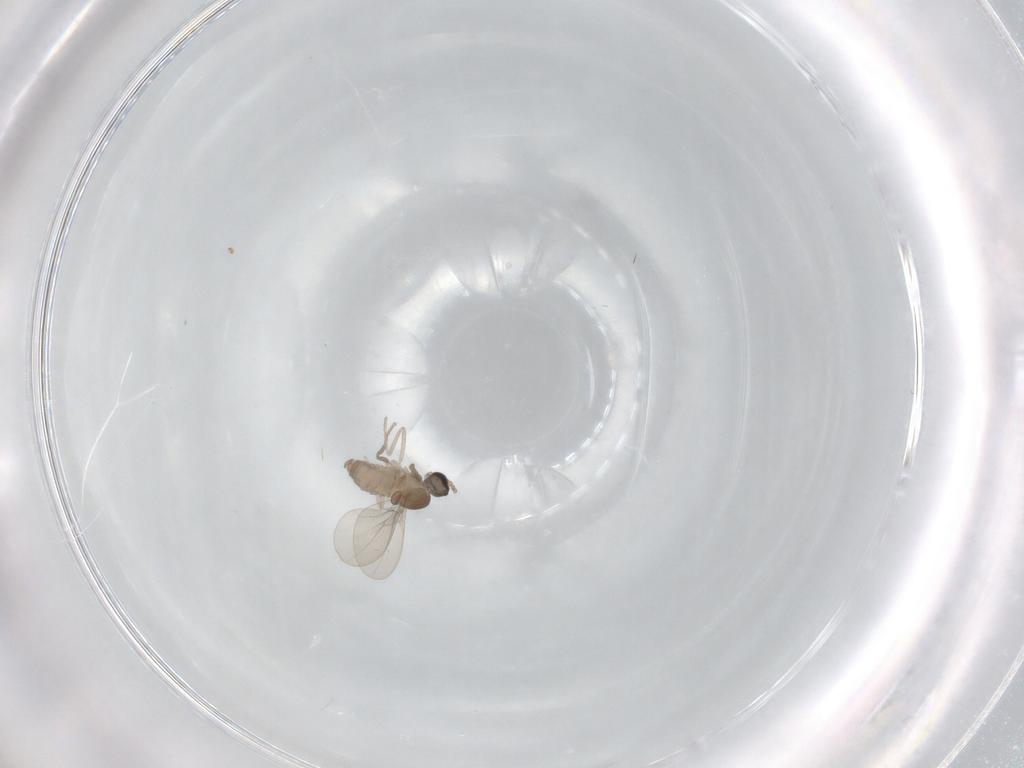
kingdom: Animalia
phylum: Arthropoda
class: Insecta
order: Diptera
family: Cecidomyiidae
